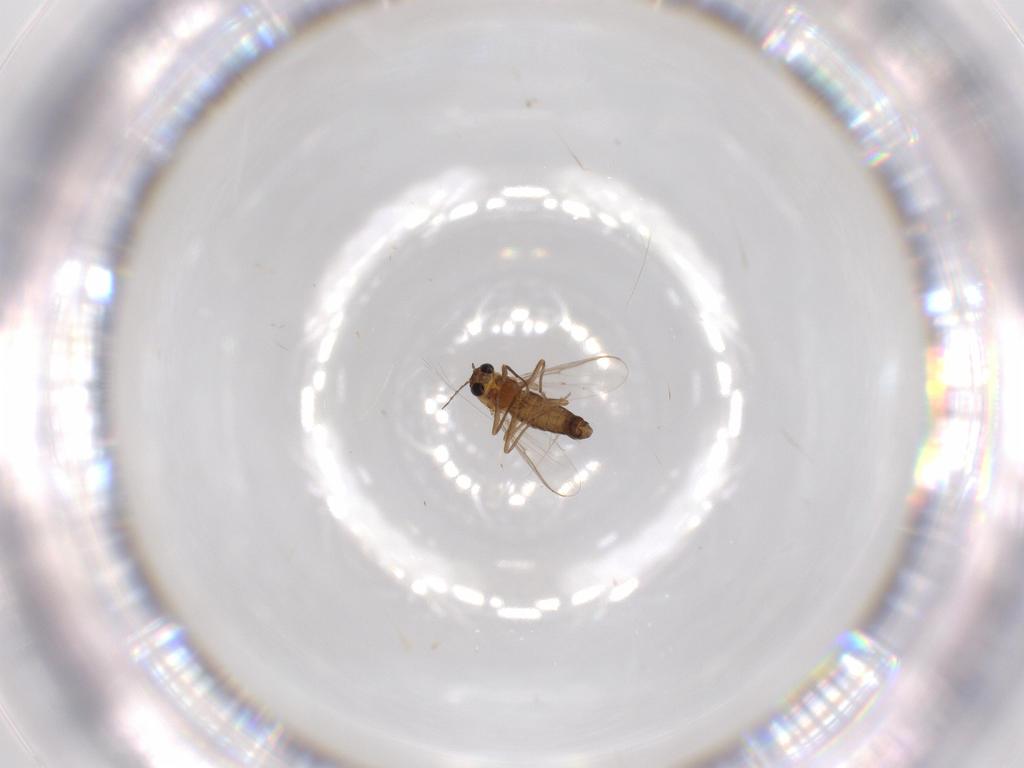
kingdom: Animalia
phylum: Arthropoda
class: Insecta
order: Diptera
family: Chironomidae
